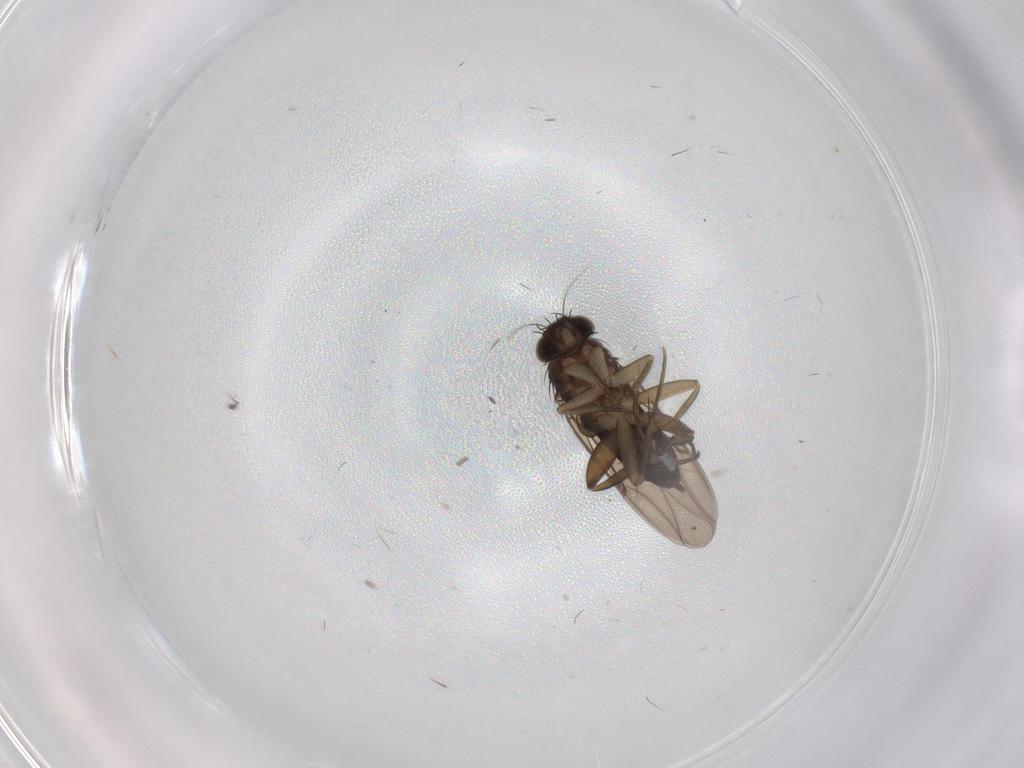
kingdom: Animalia
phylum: Arthropoda
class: Insecta
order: Diptera
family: Phoridae
